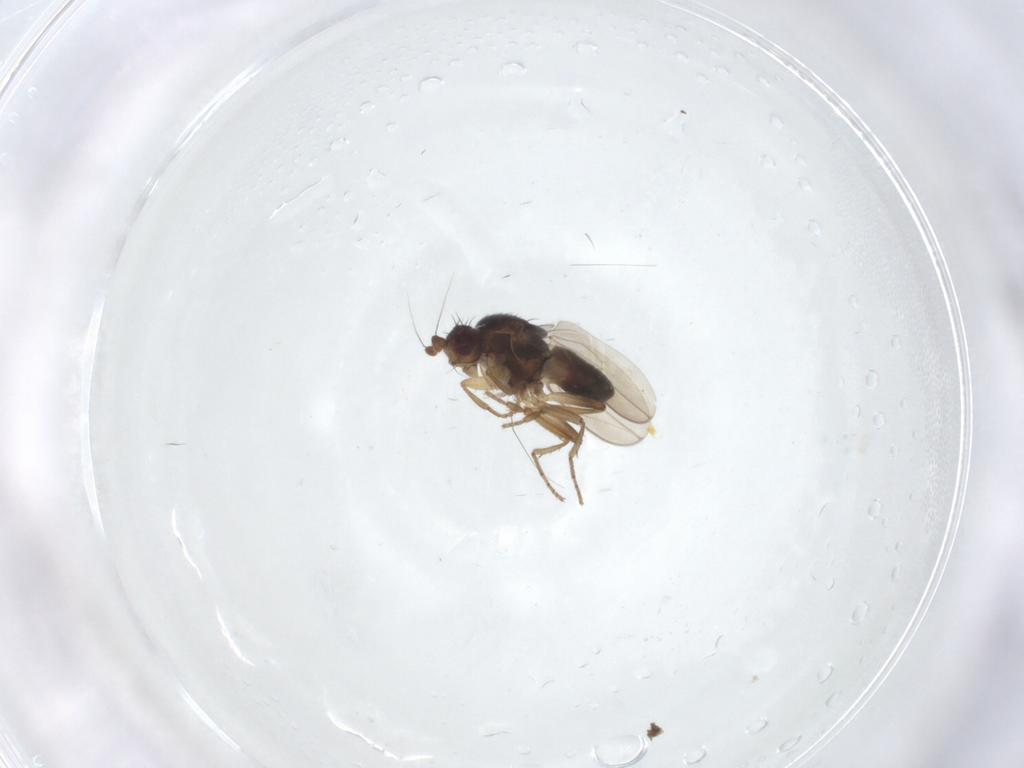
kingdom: Animalia
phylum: Arthropoda
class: Insecta
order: Diptera
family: Sphaeroceridae
